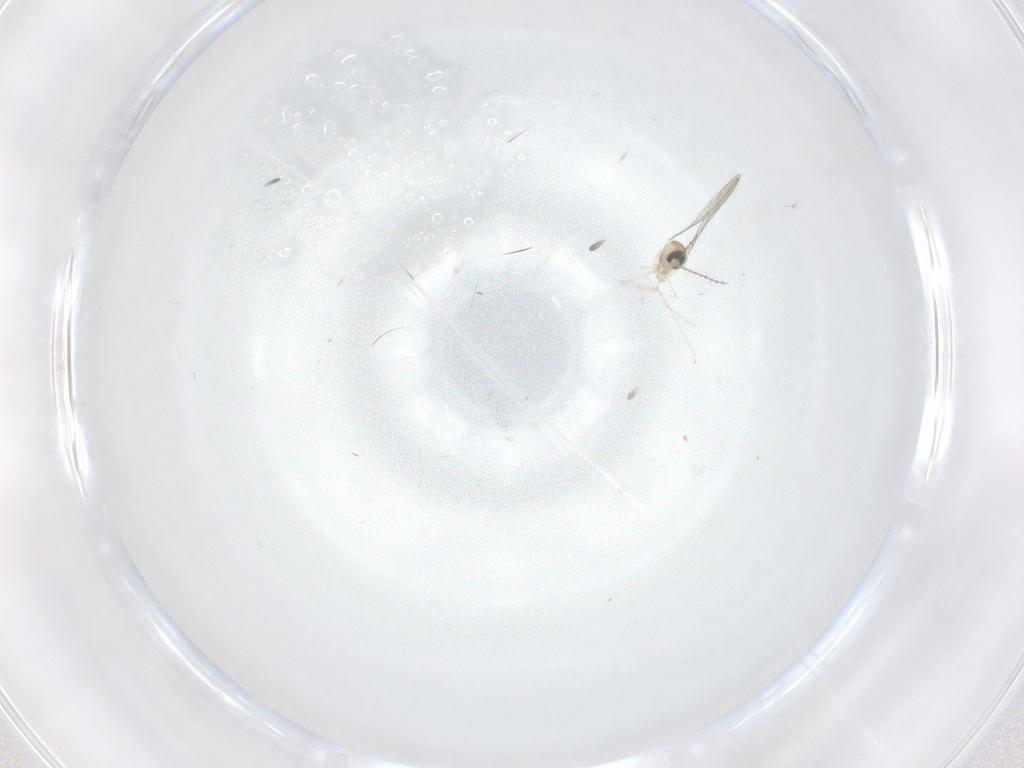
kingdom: Animalia
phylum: Arthropoda
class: Insecta
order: Diptera
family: Cecidomyiidae
